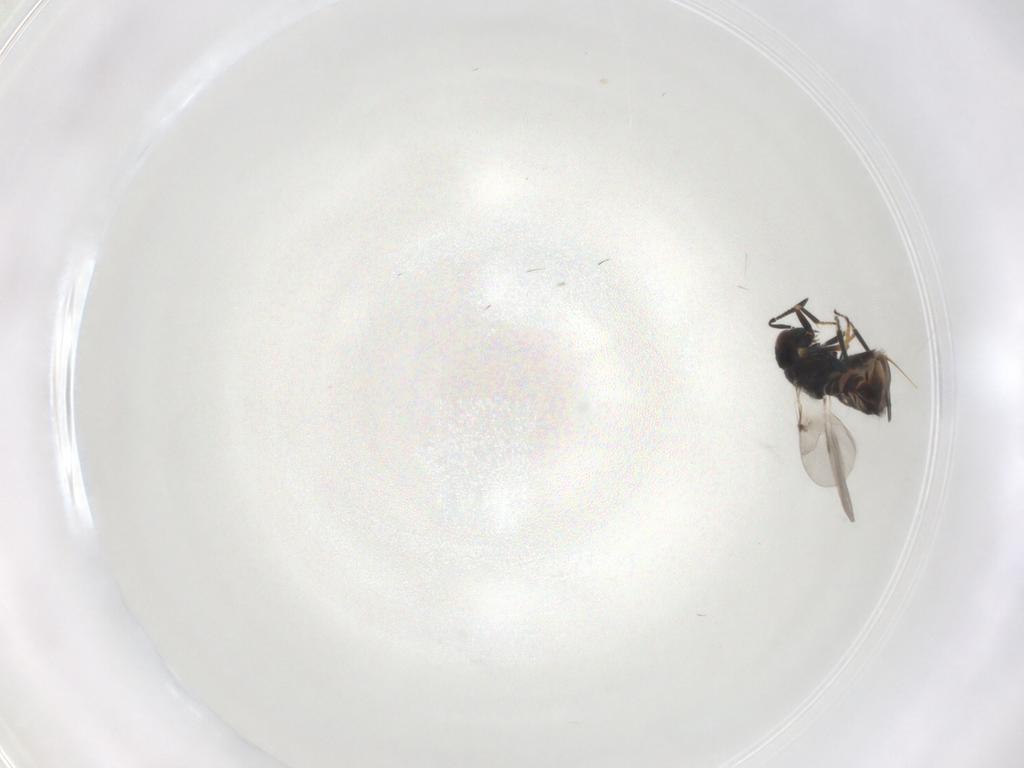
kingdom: Animalia
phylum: Arthropoda
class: Insecta
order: Hymenoptera
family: Encyrtidae
